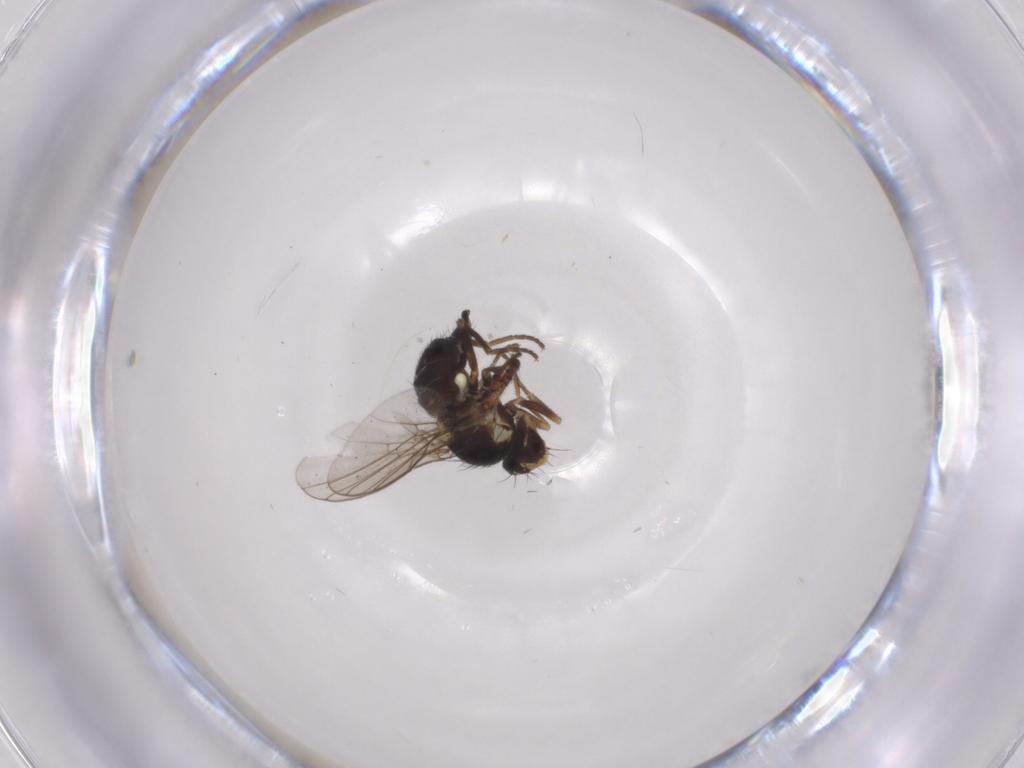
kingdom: Animalia
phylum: Arthropoda
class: Insecta
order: Diptera
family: Agromyzidae
